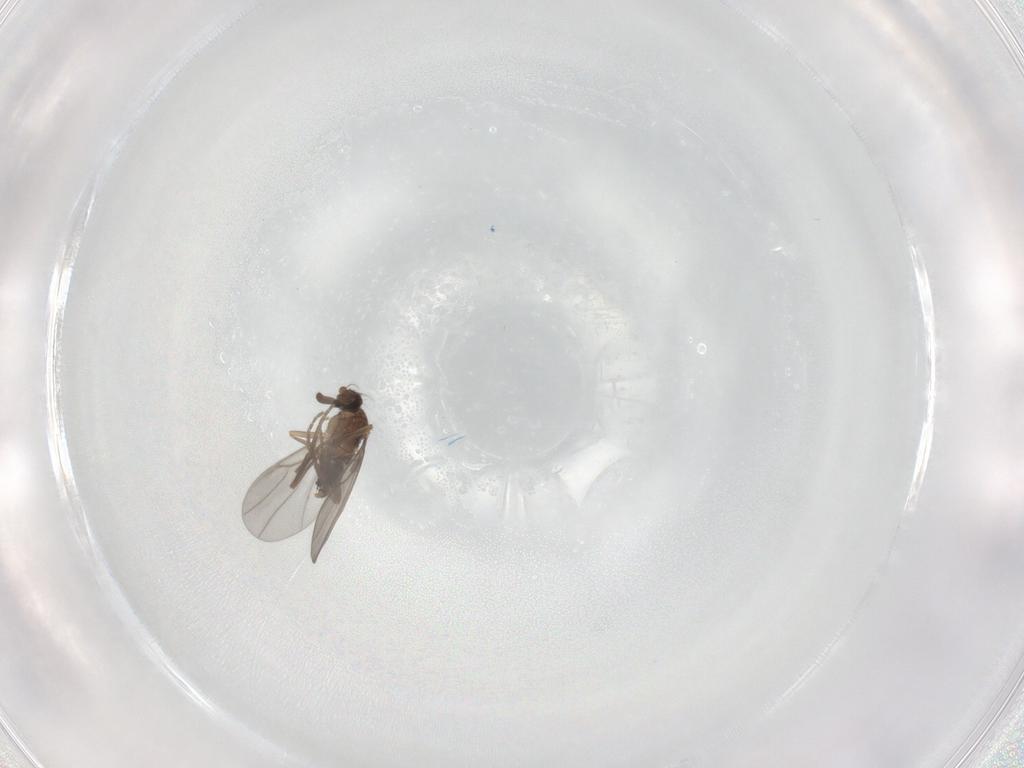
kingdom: Animalia
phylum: Arthropoda
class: Insecta
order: Diptera
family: Phoridae
